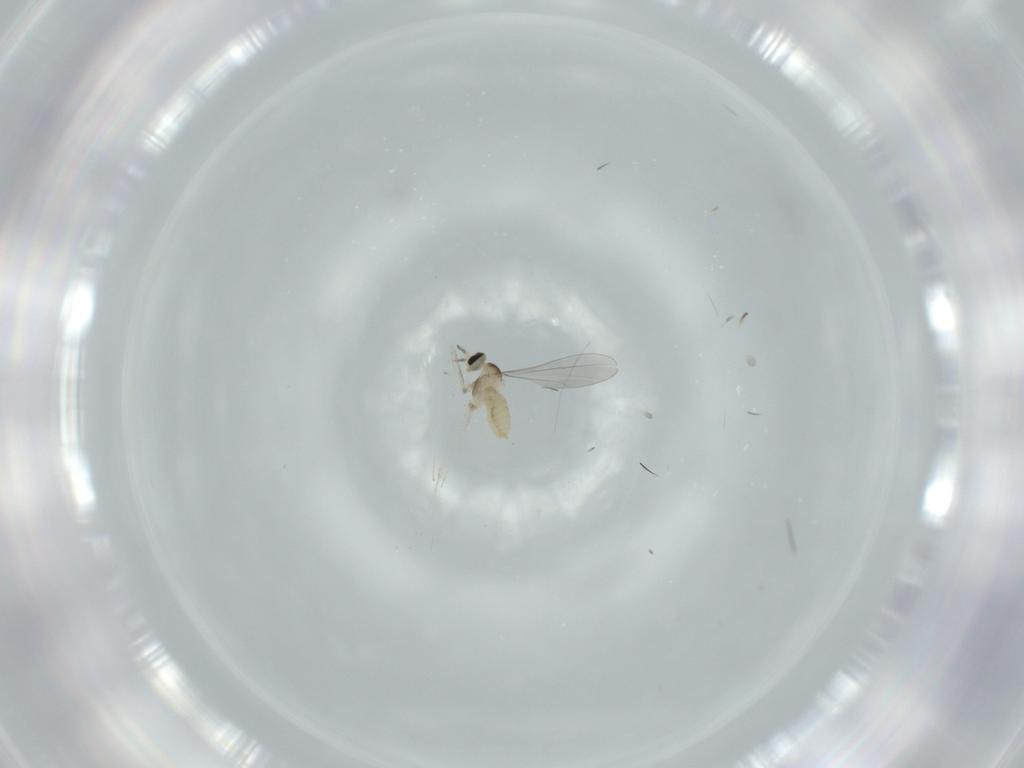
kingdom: Animalia
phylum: Arthropoda
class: Insecta
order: Diptera
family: Cecidomyiidae
